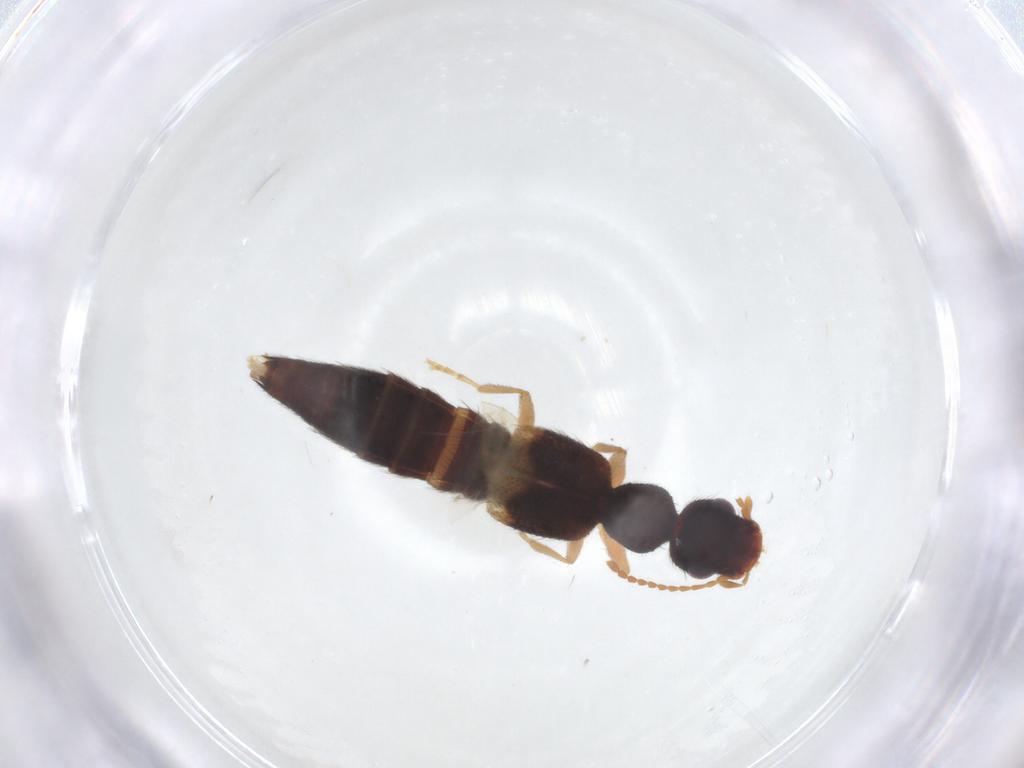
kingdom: Animalia
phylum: Arthropoda
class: Insecta
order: Coleoptera
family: Staphylinidae
